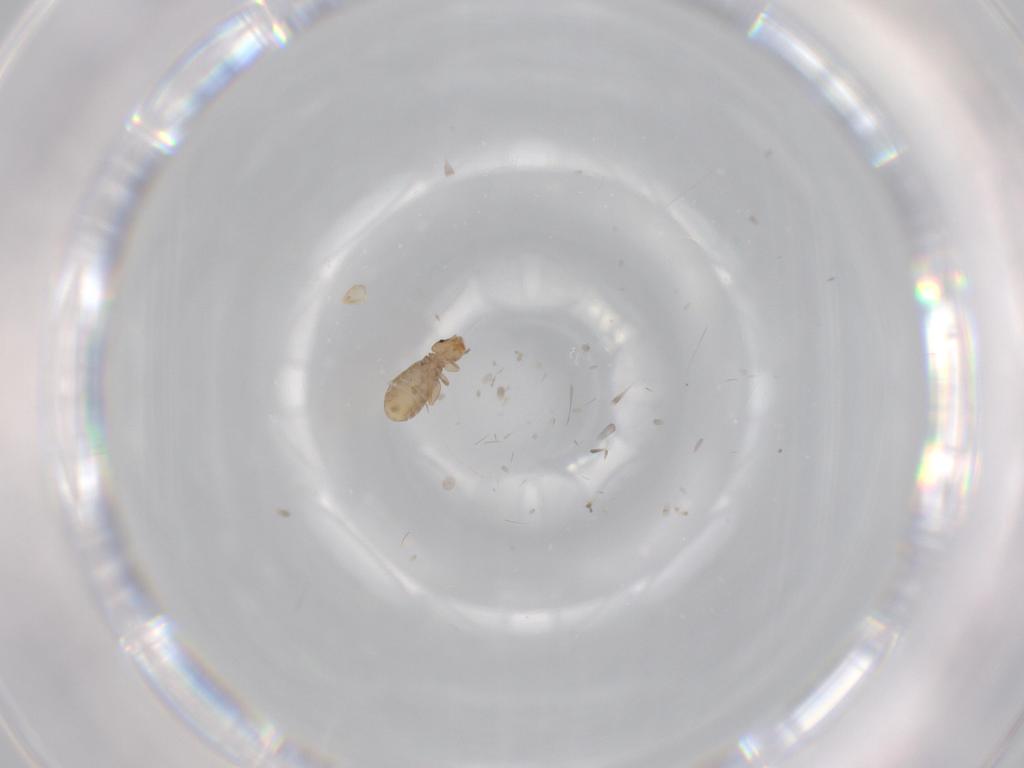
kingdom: Animalia
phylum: Arthropoda
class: Insecta
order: Psocodea
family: Liposcelididae
